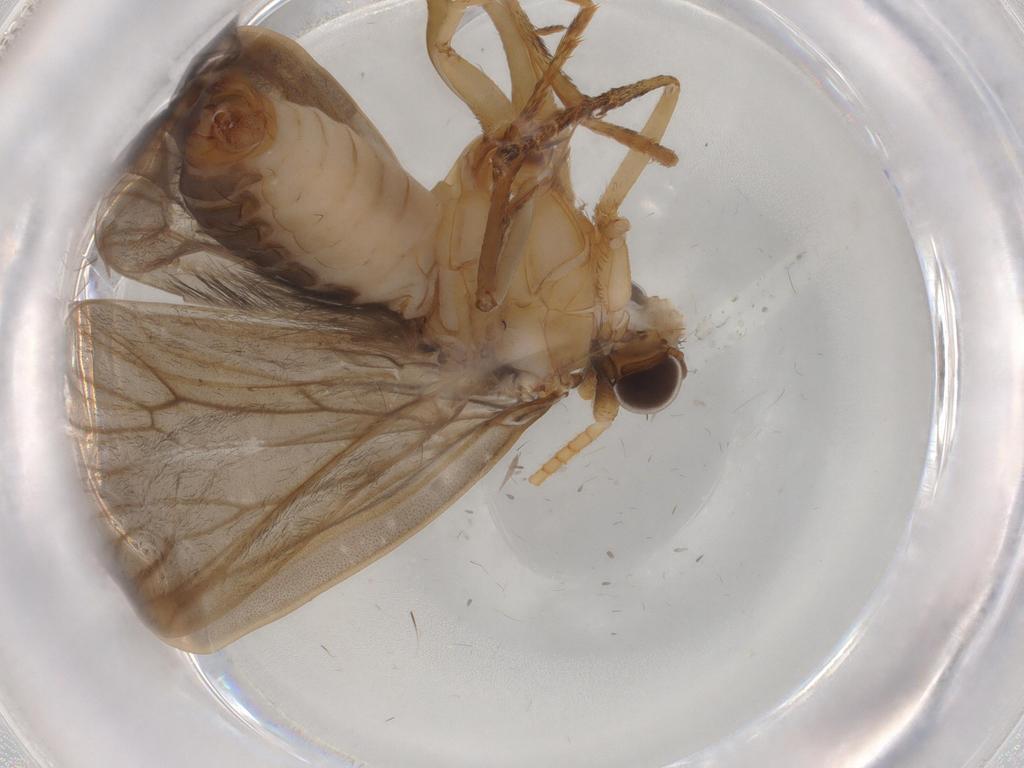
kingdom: Animalia
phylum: Arthropoda
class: Insecta
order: Trichoptera
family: Lepidostomatidae
